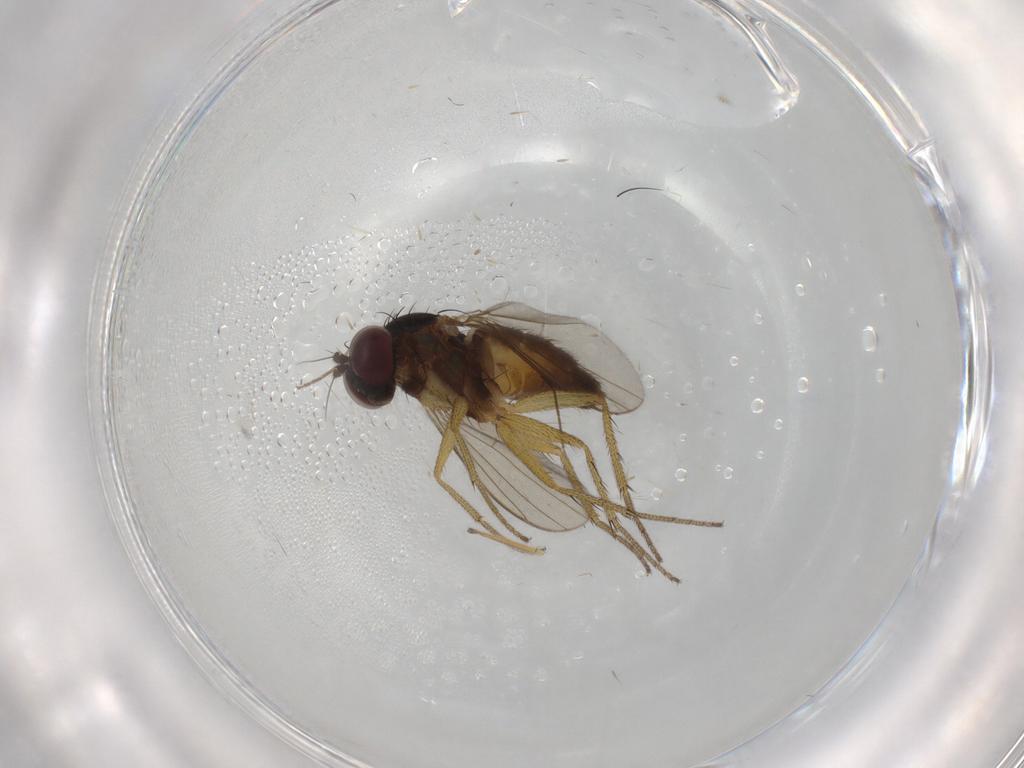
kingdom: Animalia
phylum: Arthropoda
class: Insecta
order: Diptera
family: Chironomidae
